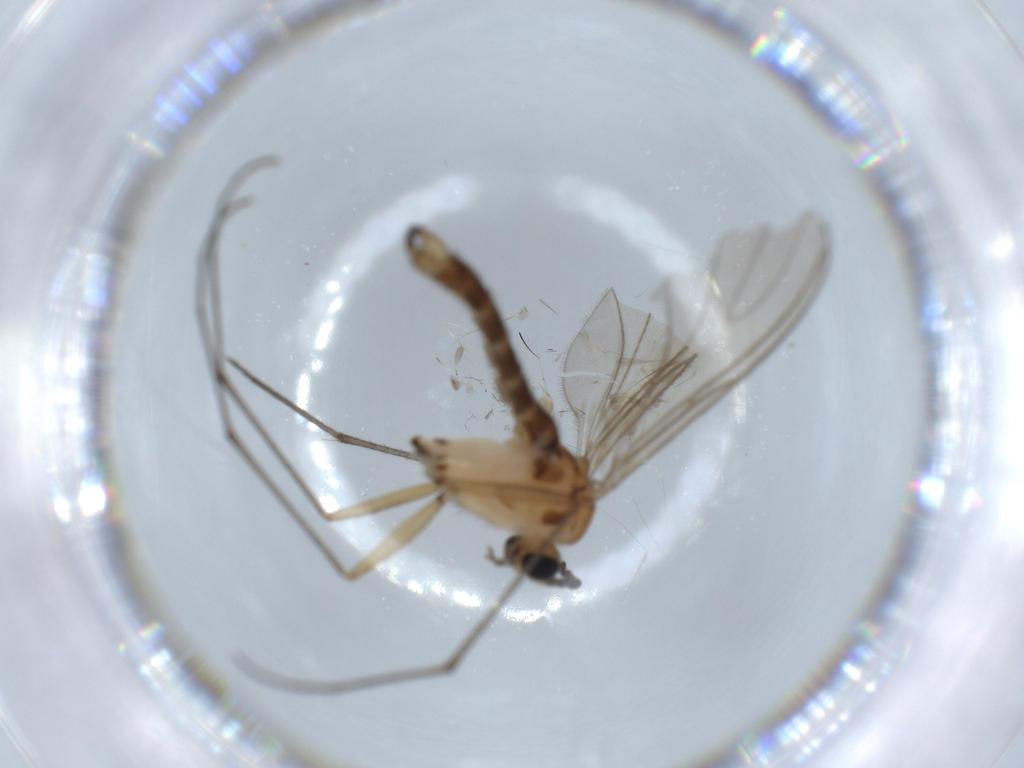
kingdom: Animalia
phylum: Arthropoda
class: Insecta
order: Diptera
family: Sciaridae
